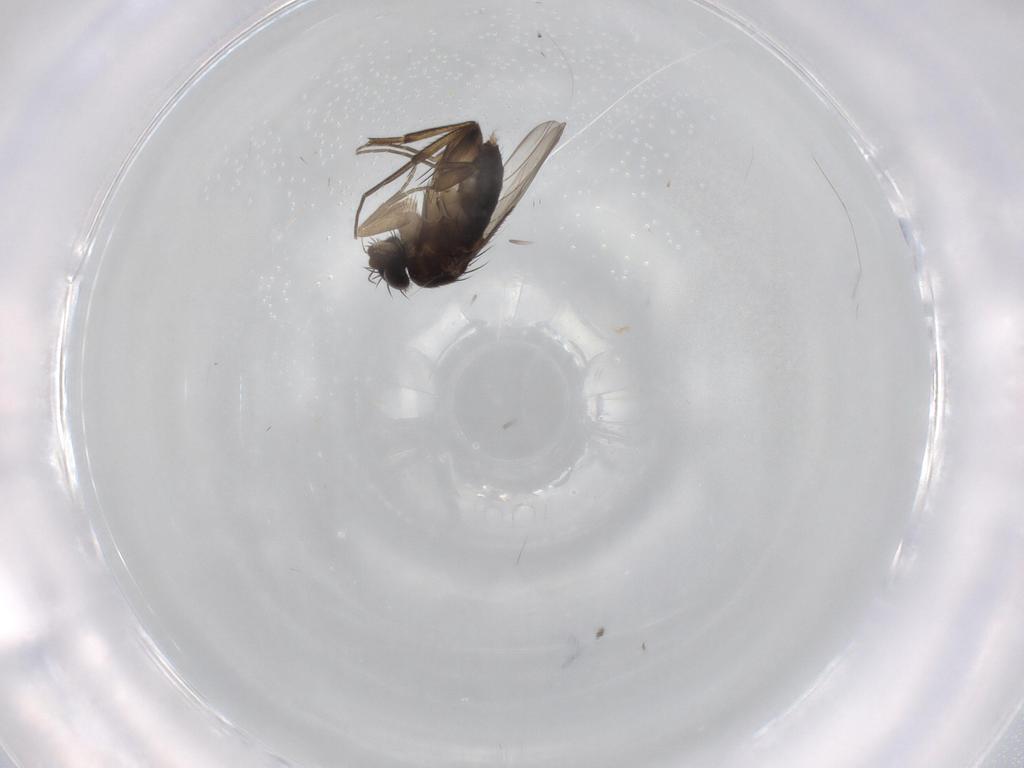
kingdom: Animalia
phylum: Arthropoda
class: Insecta
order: Diptera
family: Phoridae
